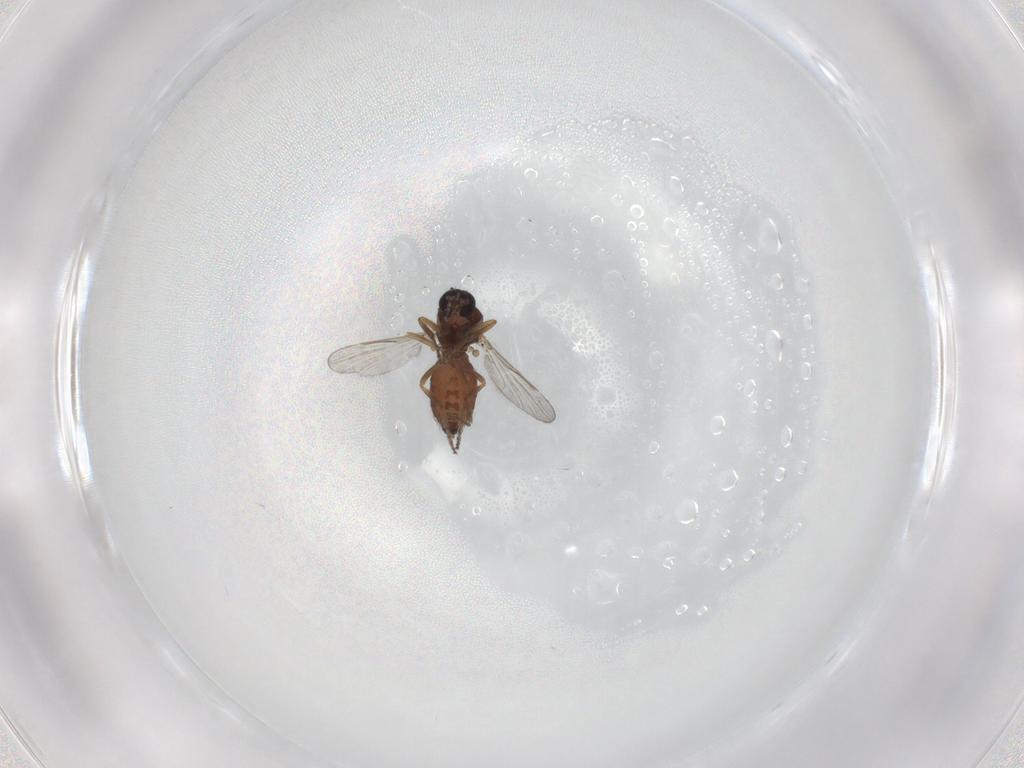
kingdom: Animalia
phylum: Arthropoda
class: Insecta
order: Diptera
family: Ceratopogonidae
